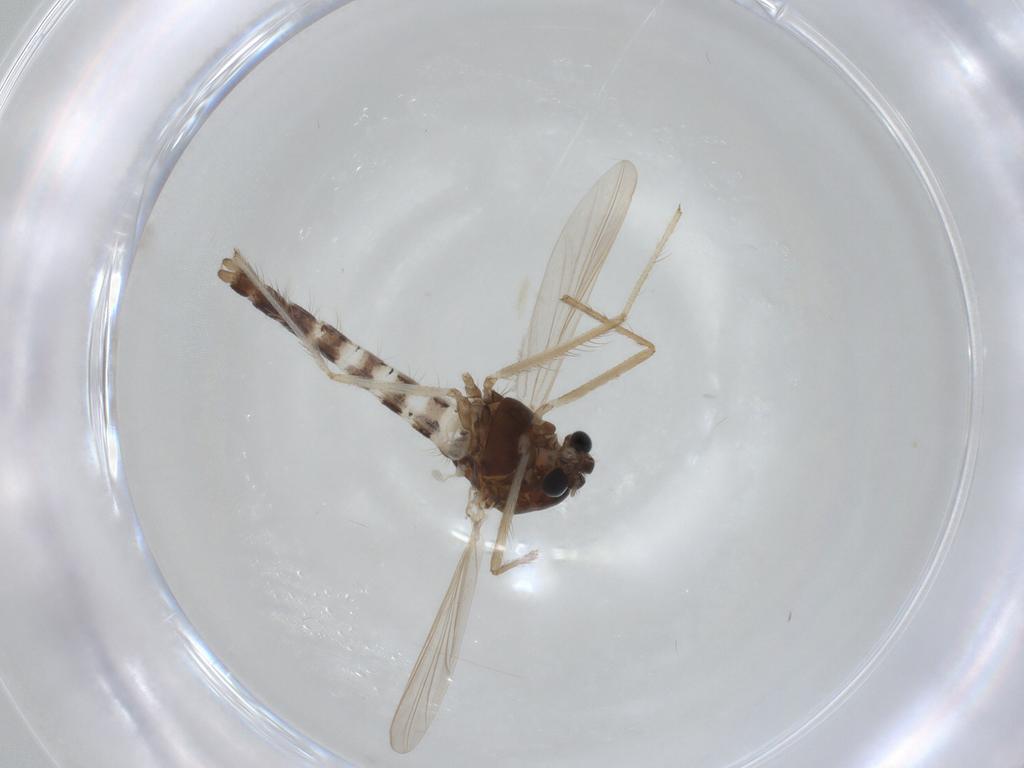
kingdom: Animalia
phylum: Arthropoda
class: Insecta
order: Diptera
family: Chironomidae
